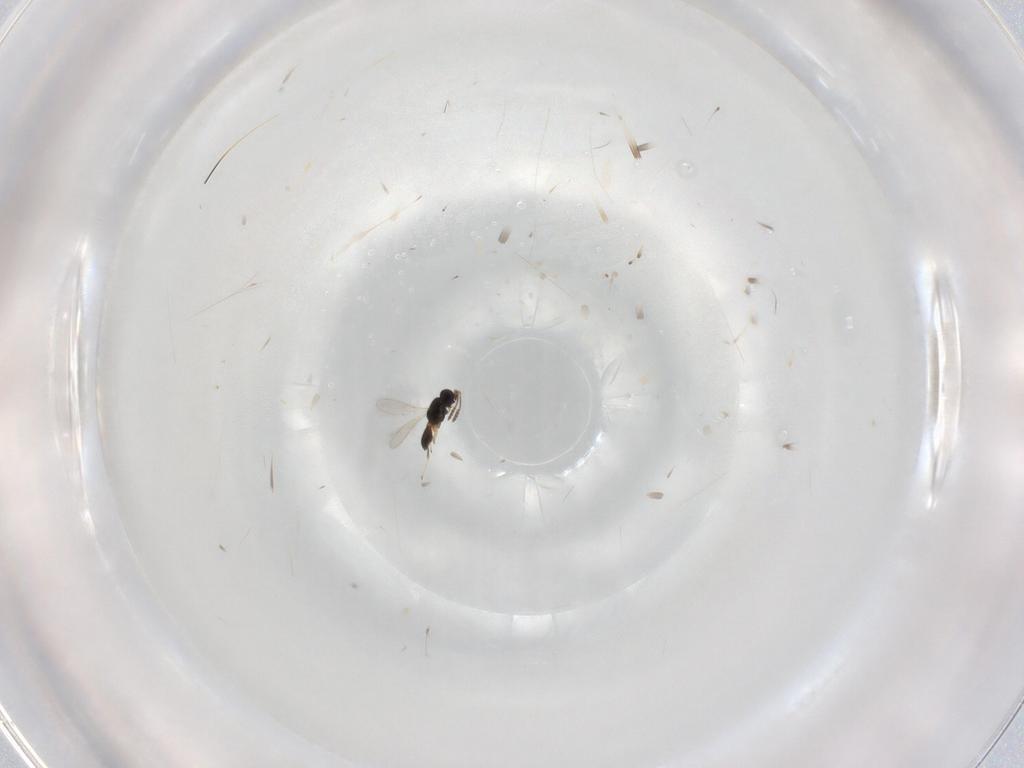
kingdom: Animalia
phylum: Arthropoda
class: Insecta
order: Hymenoptera
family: Scelionidae
